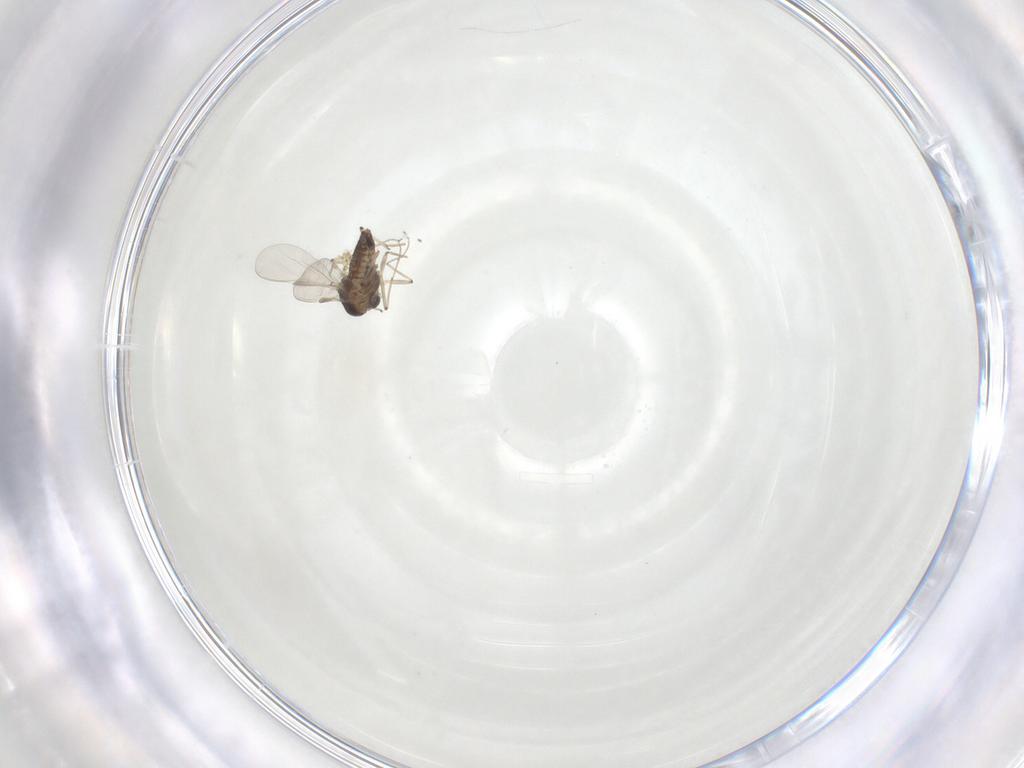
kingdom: Animalia
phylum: Arthropoda
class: Insecta
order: Diptera
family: Chironomidae
